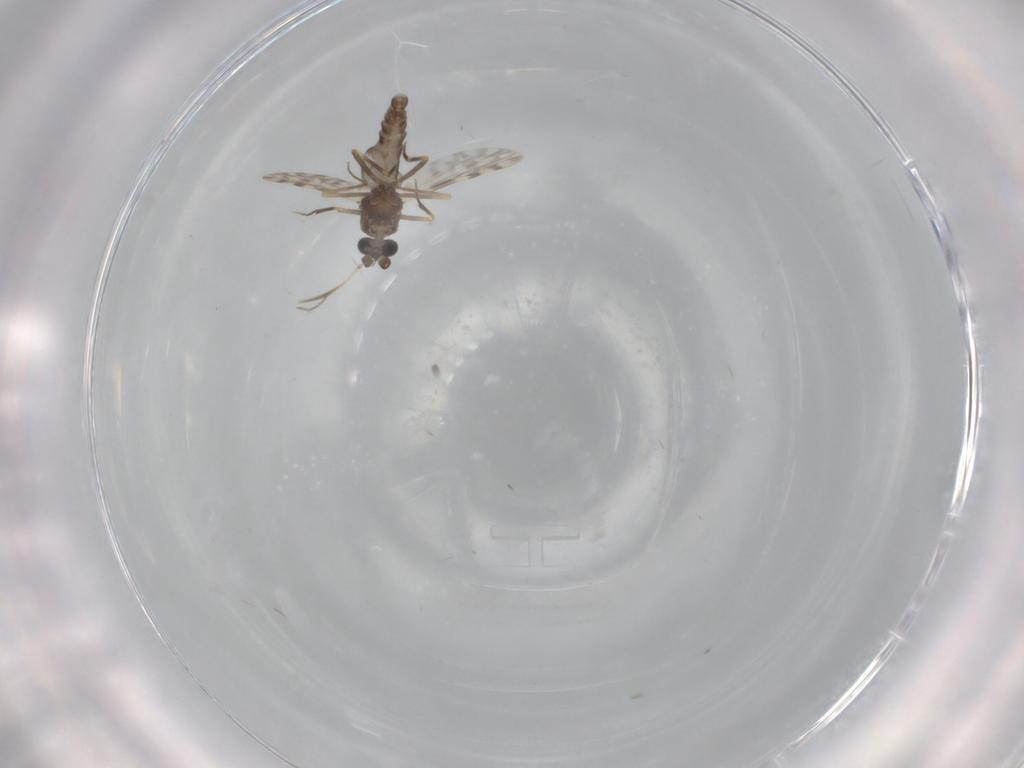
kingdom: Animalia
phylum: Arthropoda
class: Insecta
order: Diptera
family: Ceratopogonidae
